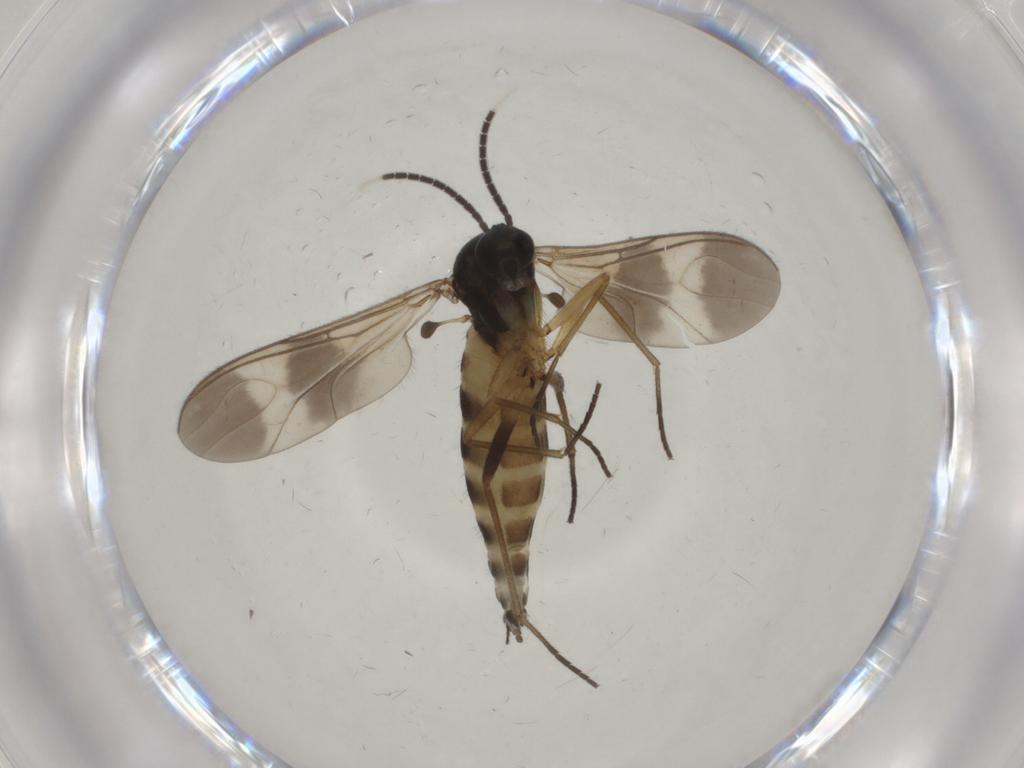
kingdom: Animalia
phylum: Arthropoda
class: Insecta
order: Diptera
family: Sciaridae
